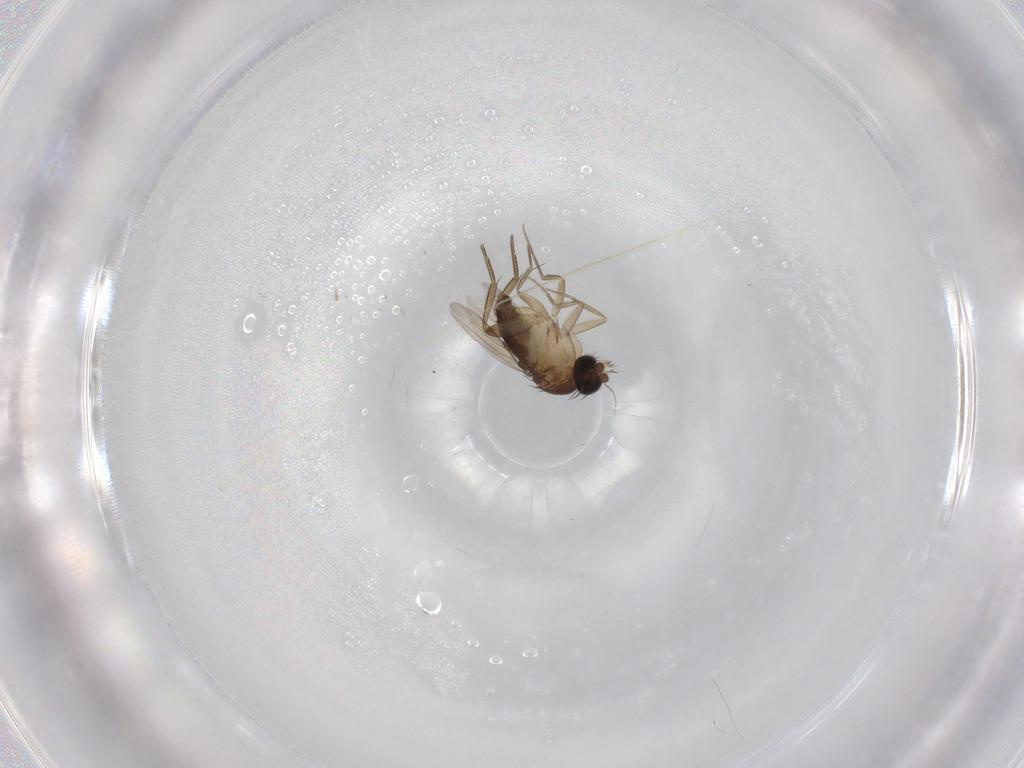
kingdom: Animalia
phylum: Arthropoda
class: Insecta
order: Diptera
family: Phoridae
